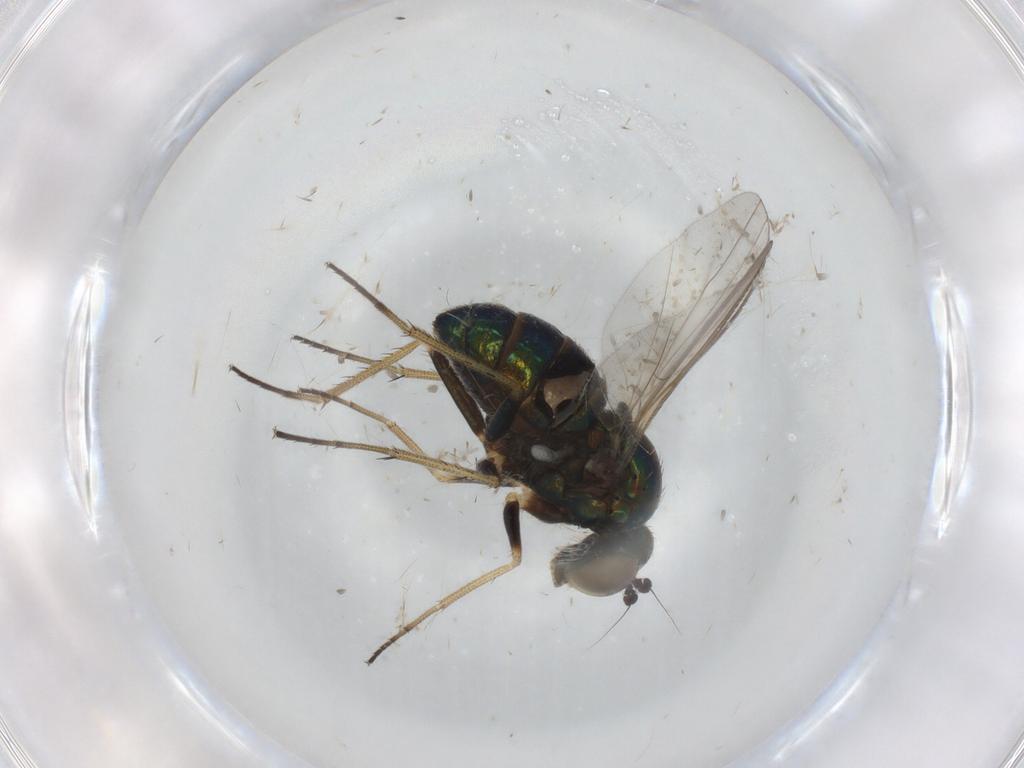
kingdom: Animalia
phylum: Arthropoda
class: Insecta
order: Diptera
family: Dolichopodidae
